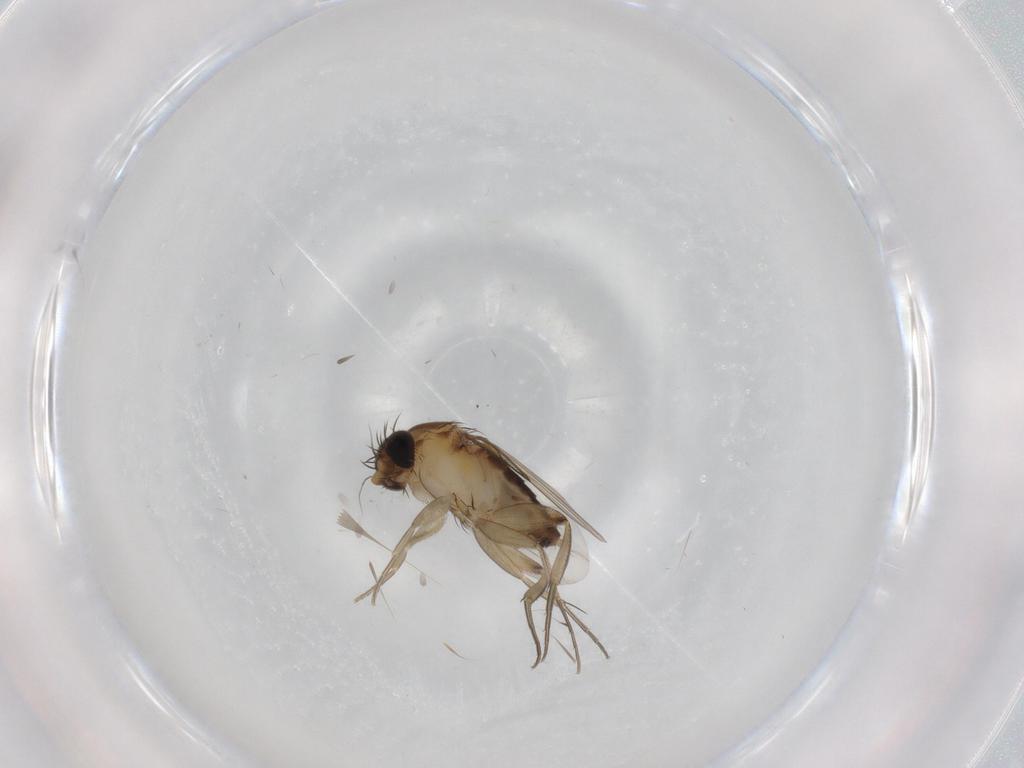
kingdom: Animalia
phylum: Arthropoda
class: Insecta
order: Diptera
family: Phoridae
